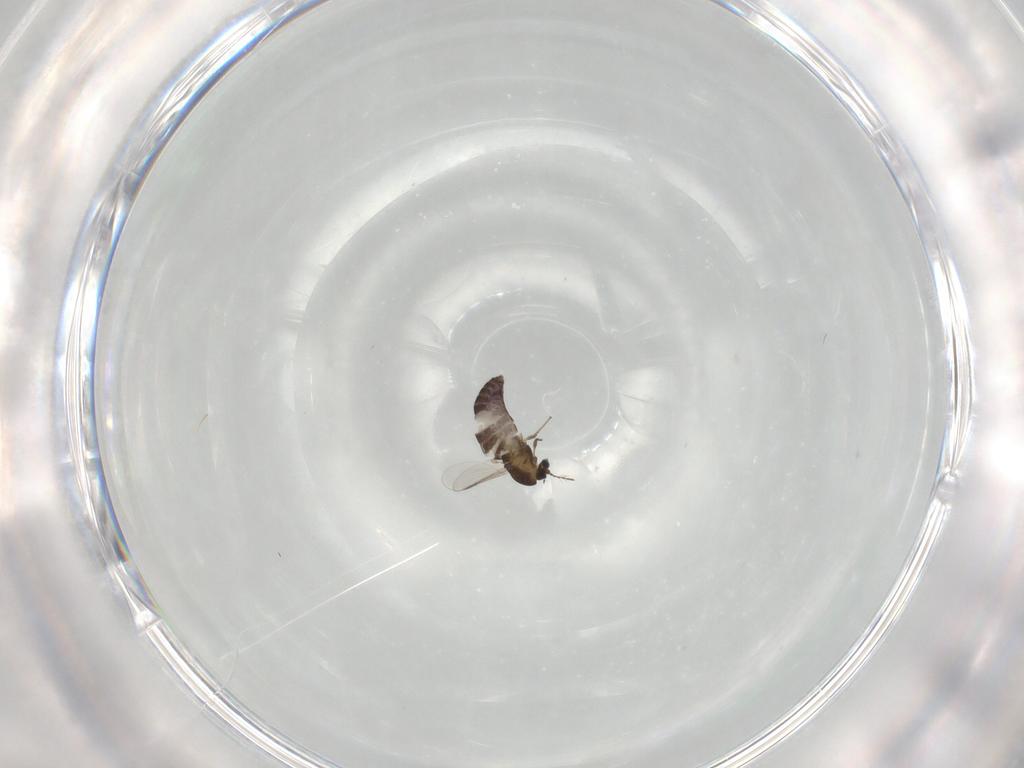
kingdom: Animalia
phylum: Arthropoda
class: Insecta
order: Diptera
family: Chironomidae
